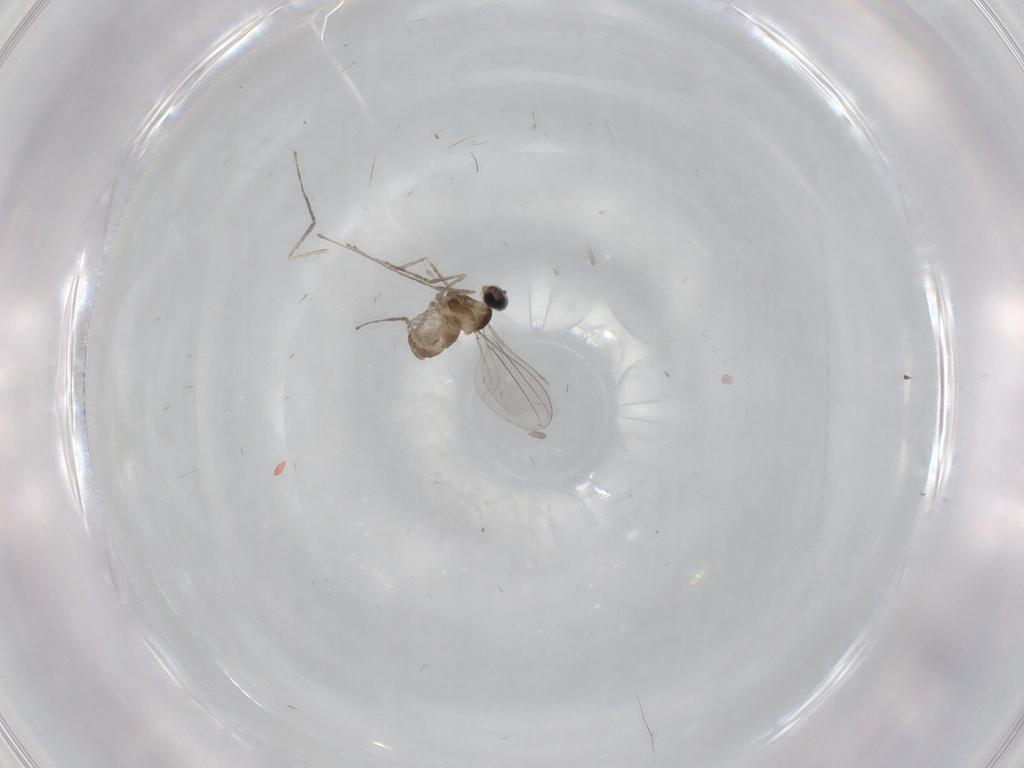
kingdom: Animalia
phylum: Arthropoda
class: Insecta
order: Diptera
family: Cecidomyiidae
